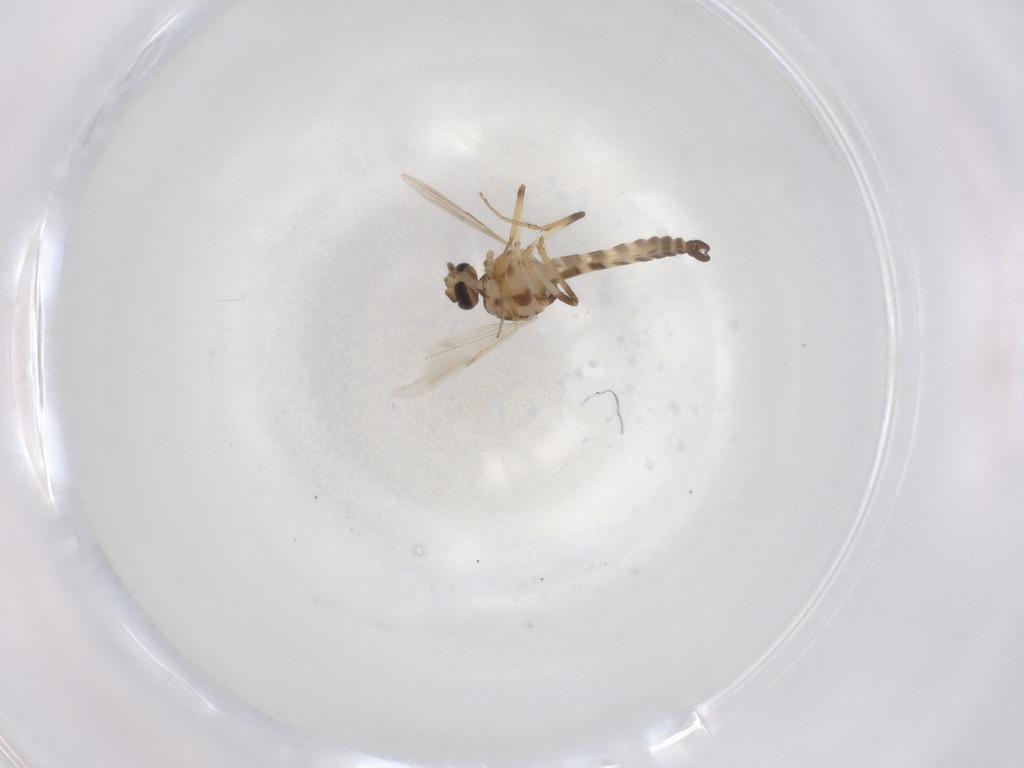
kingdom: Animalia
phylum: Arthropoda
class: Insecta
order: Diptera
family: Ceratopogonidae
